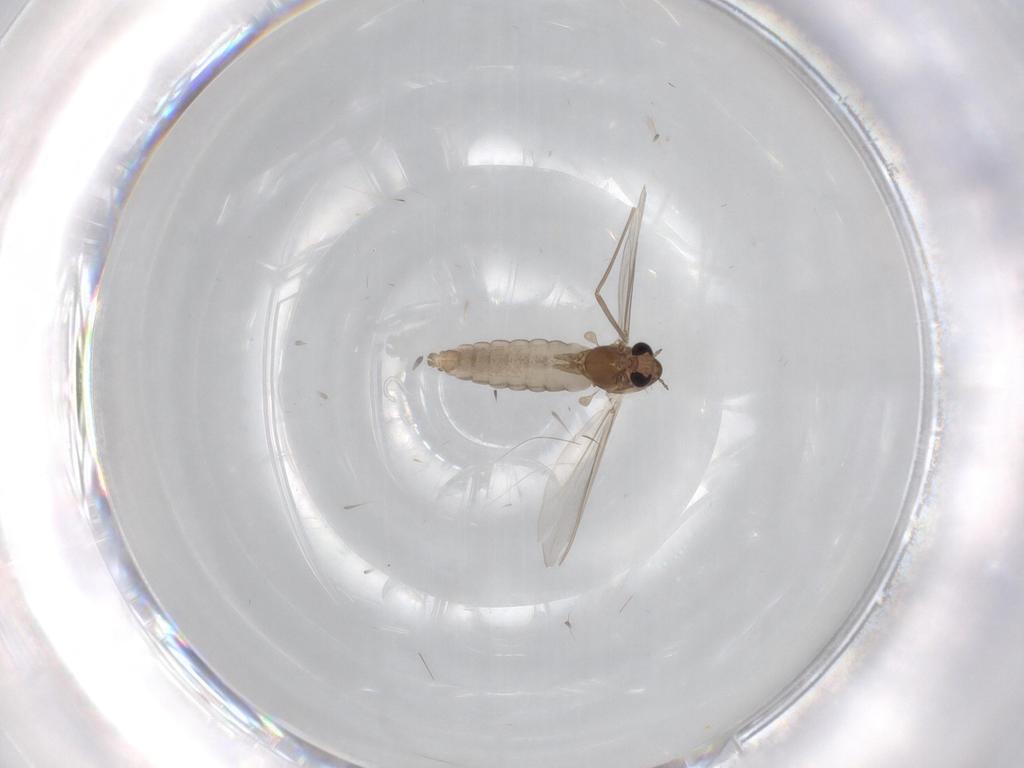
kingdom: Animalia
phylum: Arthropoda
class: Insecta
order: Diptera
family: Chironomidae
